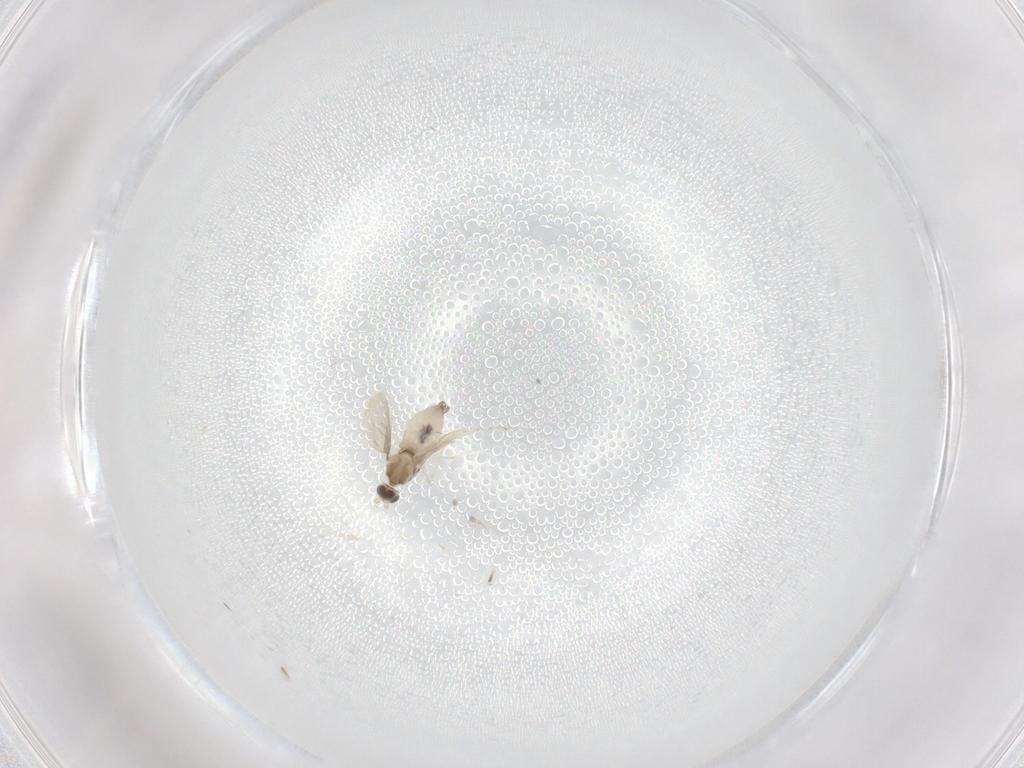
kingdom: Animalia
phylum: Arthropoda
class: Insecta
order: Diptera
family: Cecidomyiidae
